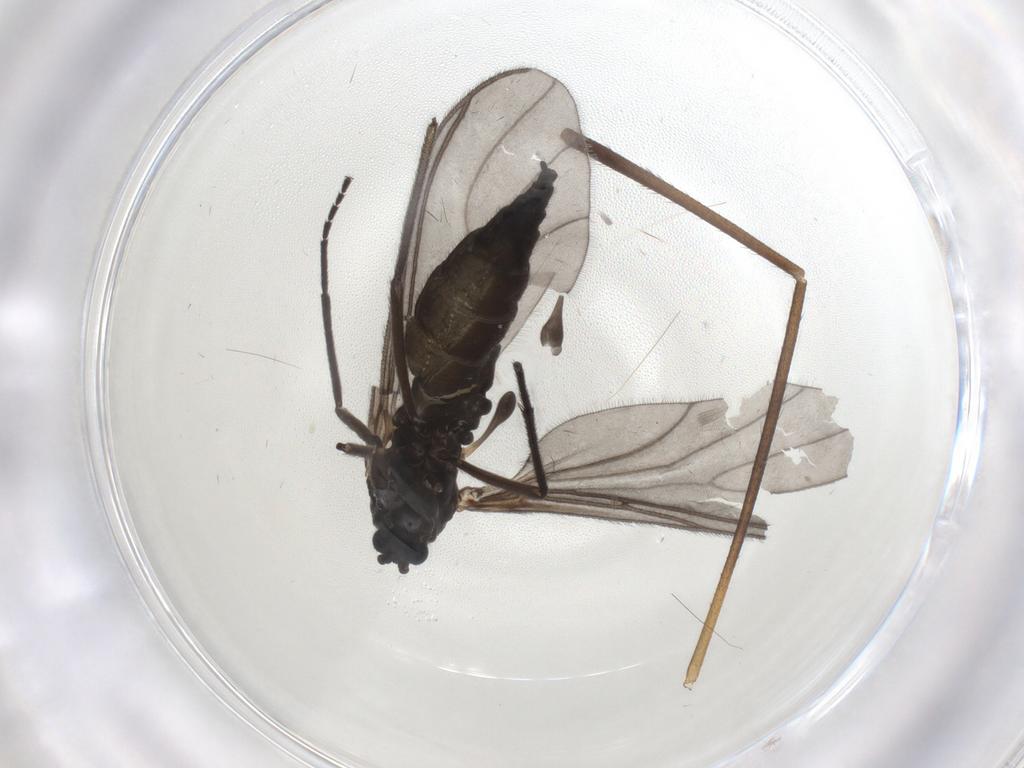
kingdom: Animalia
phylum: Arthropoda
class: Insecta
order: Diptera
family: Sciaridae
